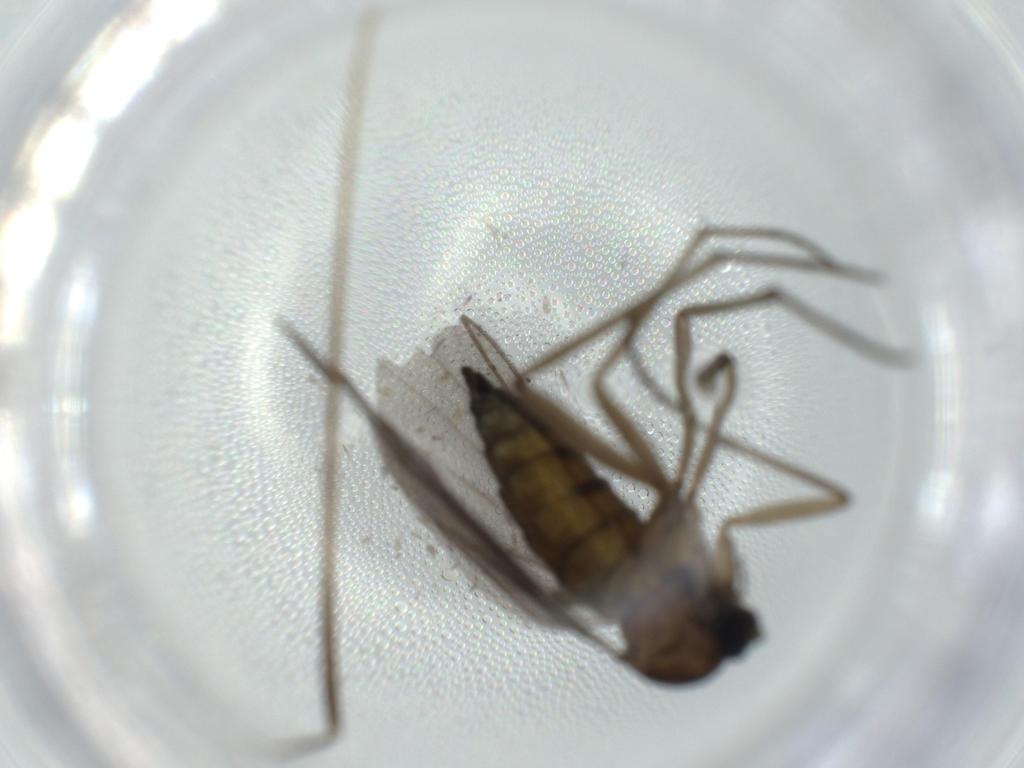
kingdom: Animalia
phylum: Arthropoda
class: Insecta
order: Diptera
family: Sciaridae
